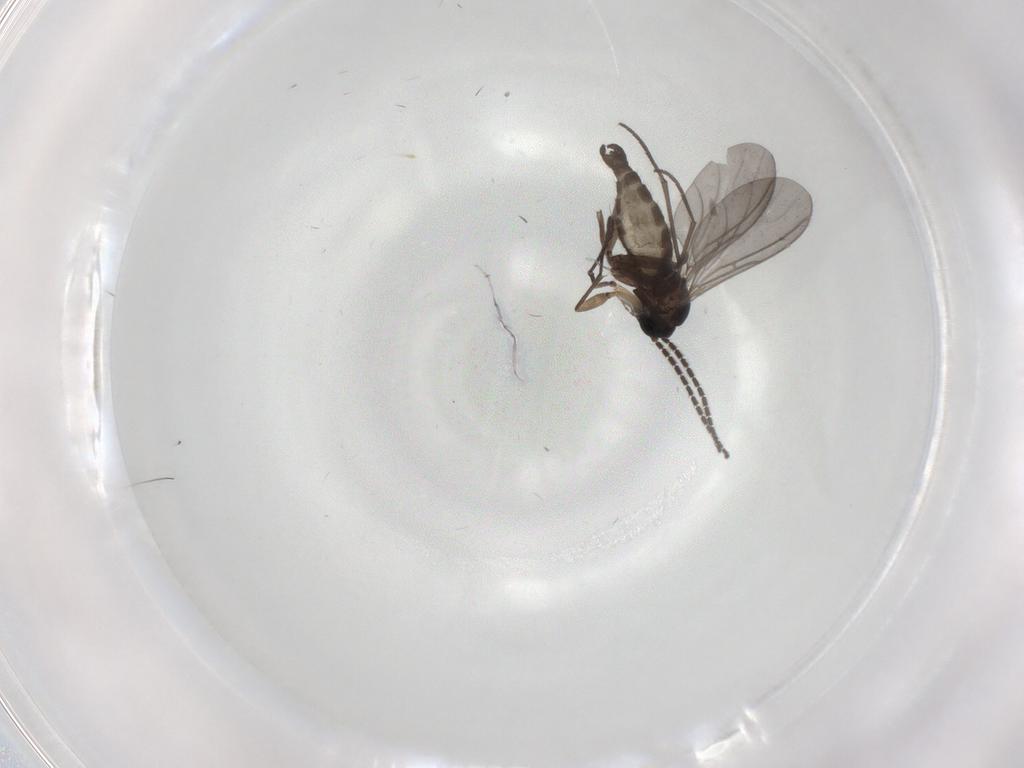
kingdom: Animalia
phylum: Arthropoda
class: Insecta
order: Diptera
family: Sciaridae
